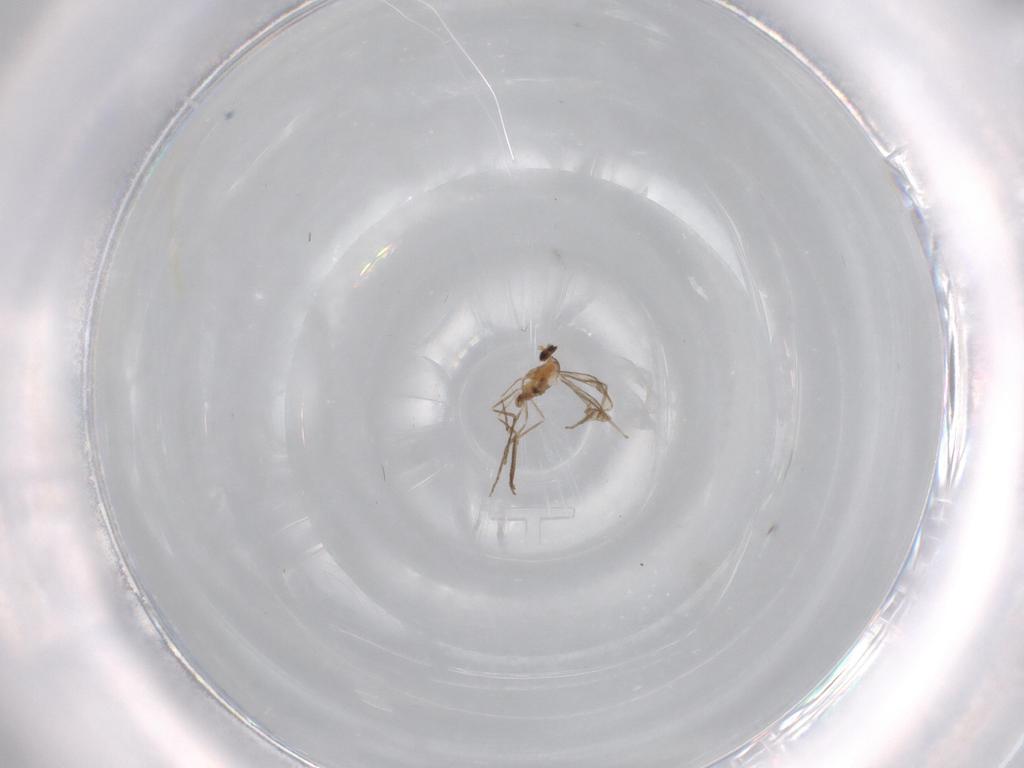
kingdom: Animalia
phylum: Arthropoda
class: Insecta
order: Diptera
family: Cecidomyiidae
